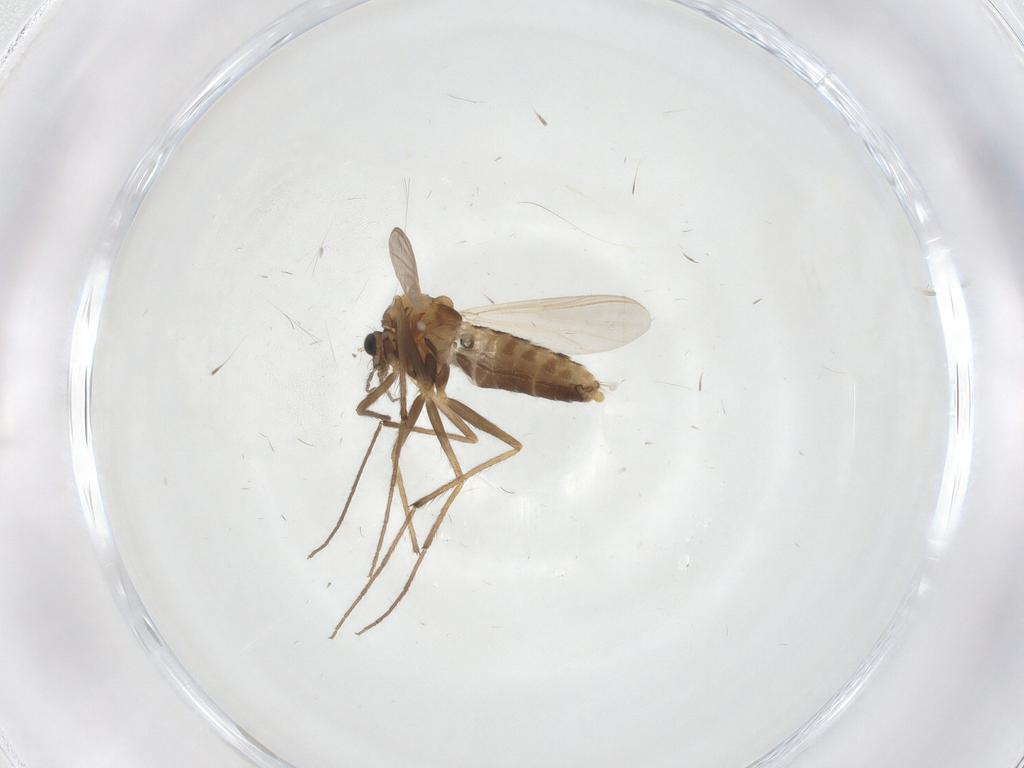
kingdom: Animalia
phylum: Arthropoda
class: Insecta
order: Diptera
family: Chironomidae
